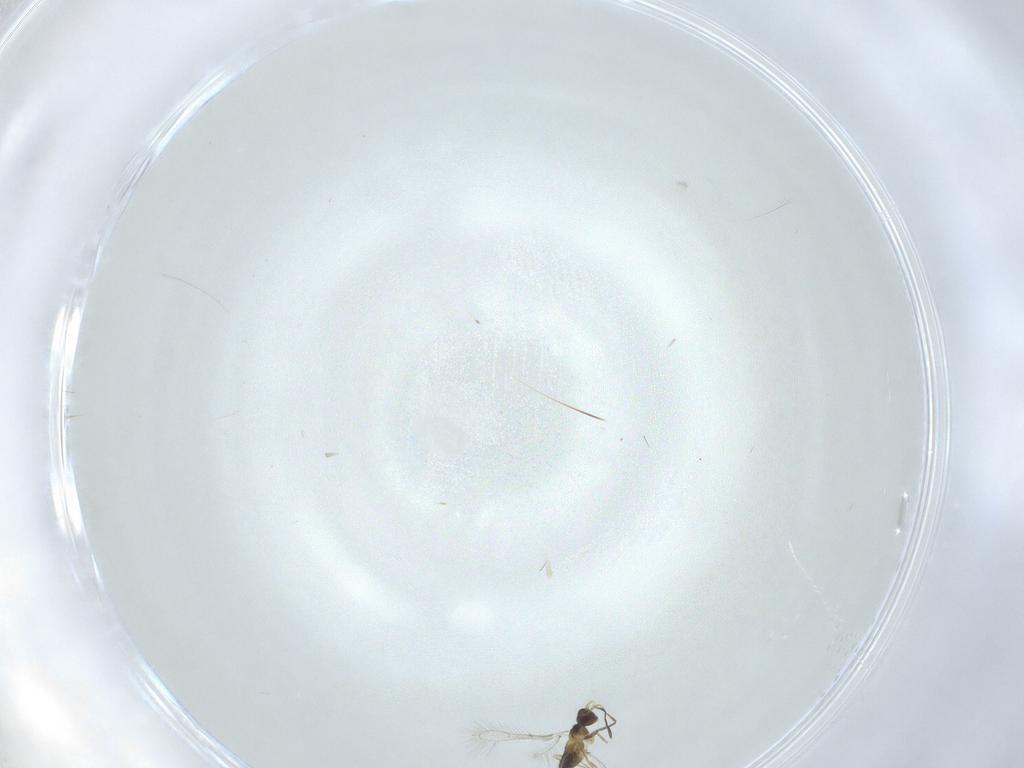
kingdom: Animalia
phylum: Arthropoda
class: Insecta
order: Hymenoptera
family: Mymaridae
